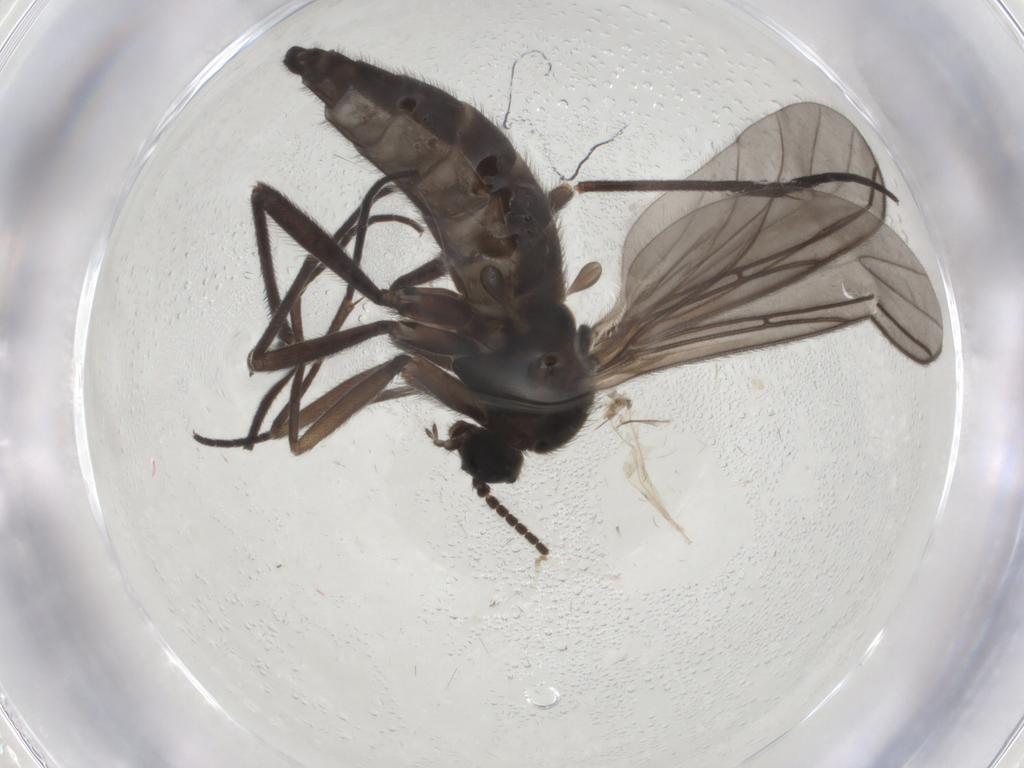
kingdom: Animalia
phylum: Arthropoda
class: Insecta
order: Diptera
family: Sciaridae
